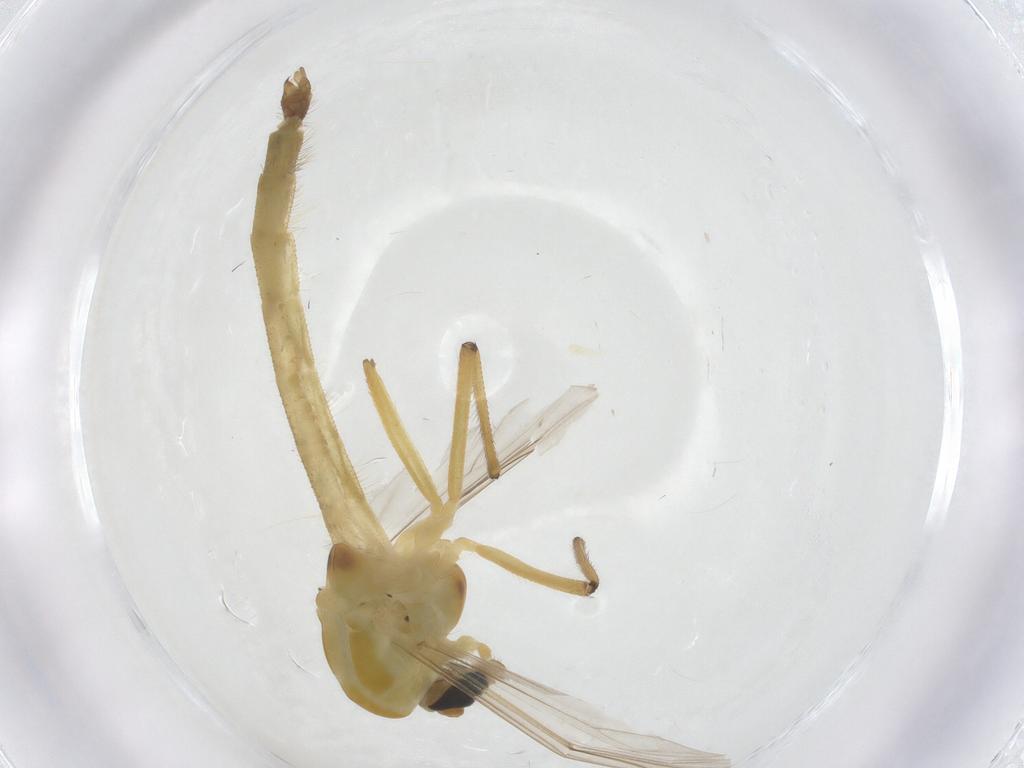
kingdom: Animalia
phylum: Arthropoda
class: Insecta
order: Diptera
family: Chironomidae
